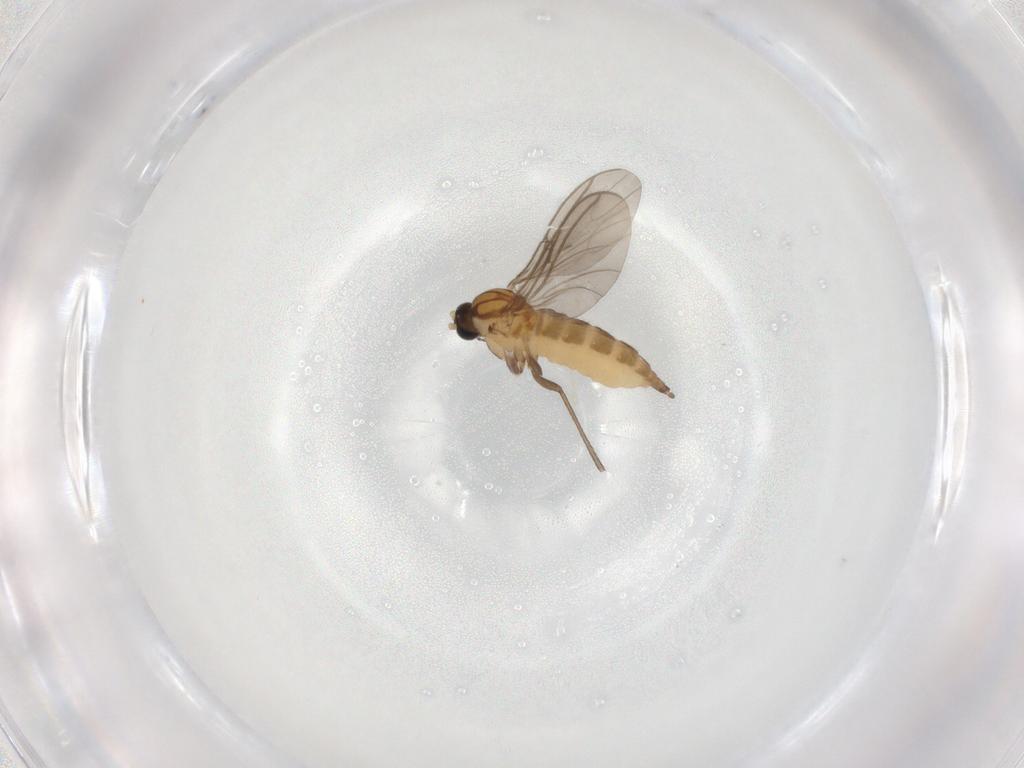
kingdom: Animalia
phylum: Arthropoda
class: Insecta
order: Diptera
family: Sciaridae
